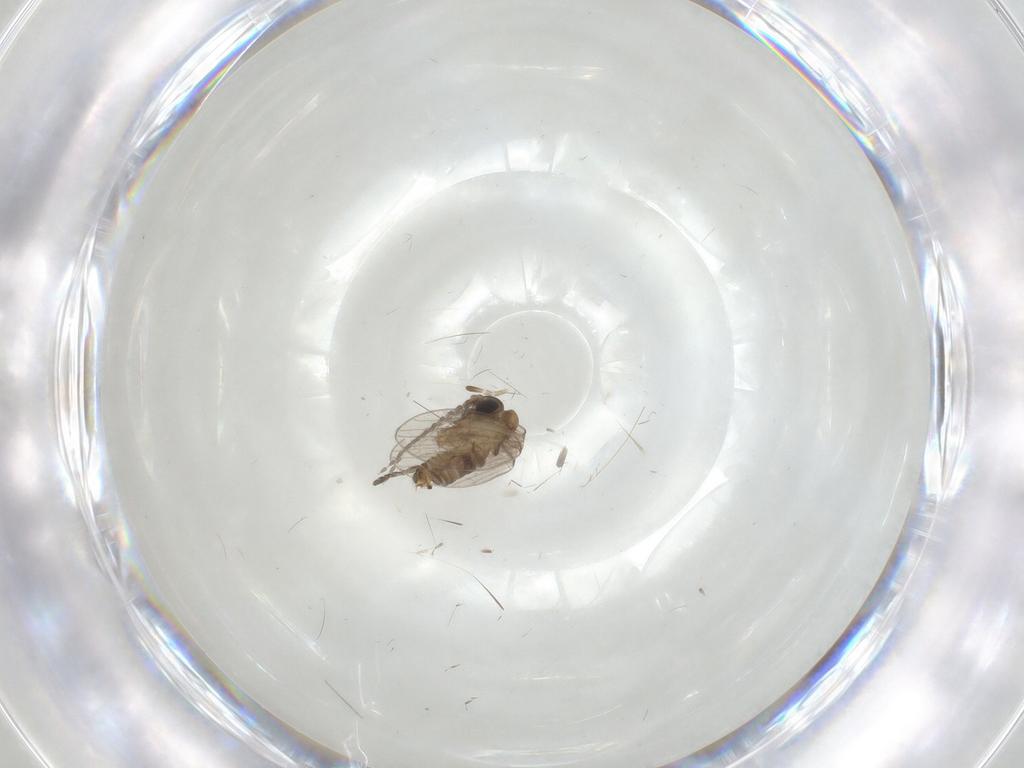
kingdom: Animalia
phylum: Arthropoda
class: Insecta
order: Diptera
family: Psychodidae
